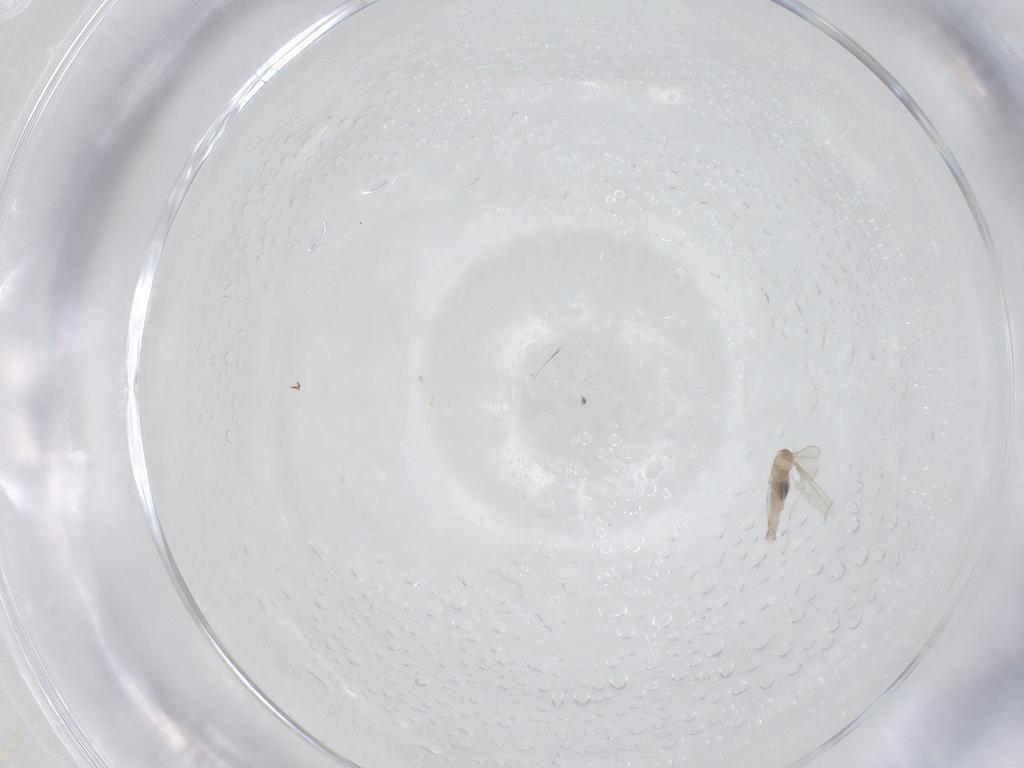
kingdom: Animalia
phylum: Arthropoda
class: Insecta
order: Diptera
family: Cecidomyiidae
